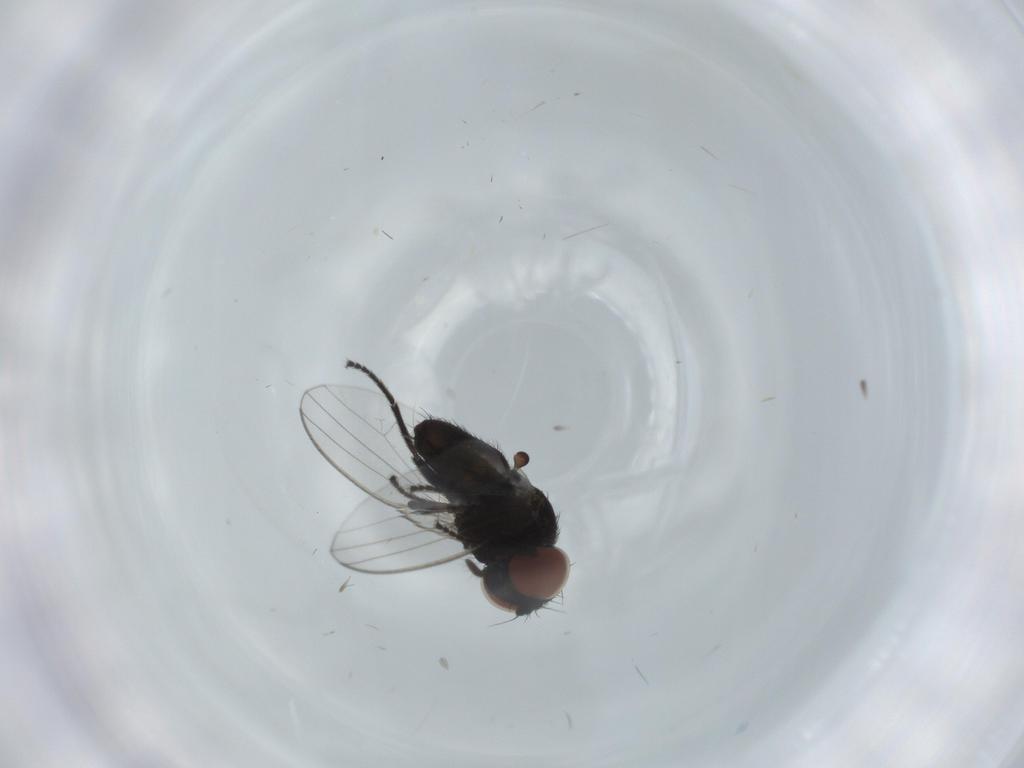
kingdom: Animalia
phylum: Arthropoda
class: Insecta
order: Diptera
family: Milichiidae
